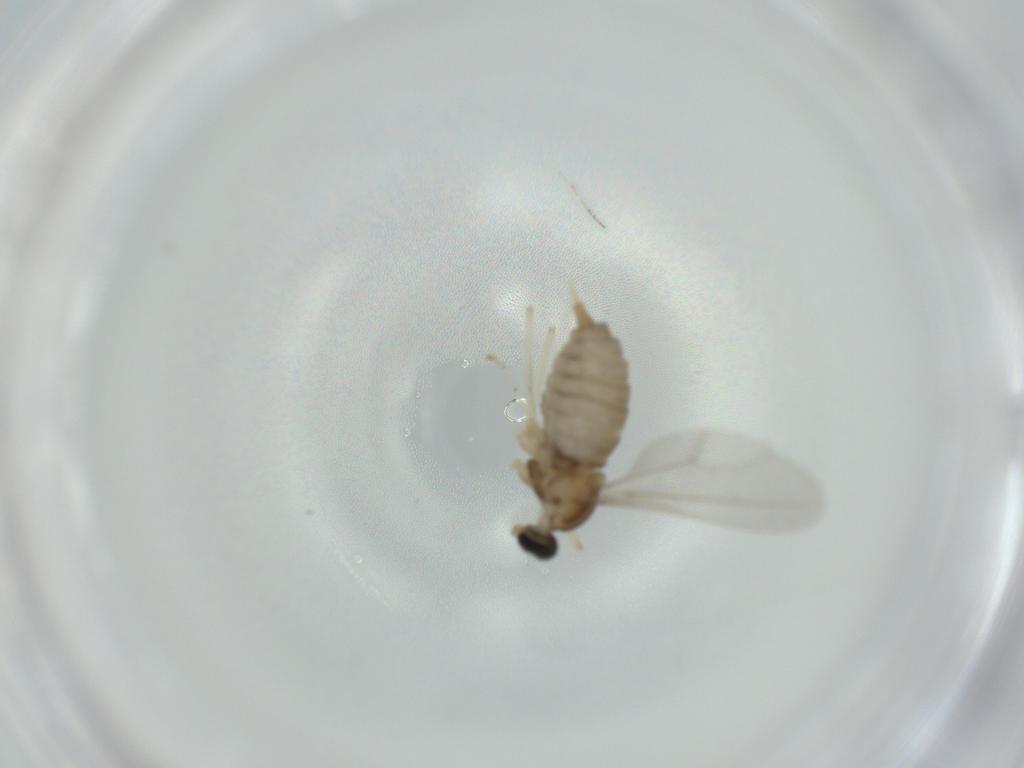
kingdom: Animalia
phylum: Arthropoda
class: Insecta
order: Diptera
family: Cecidomyiidae
